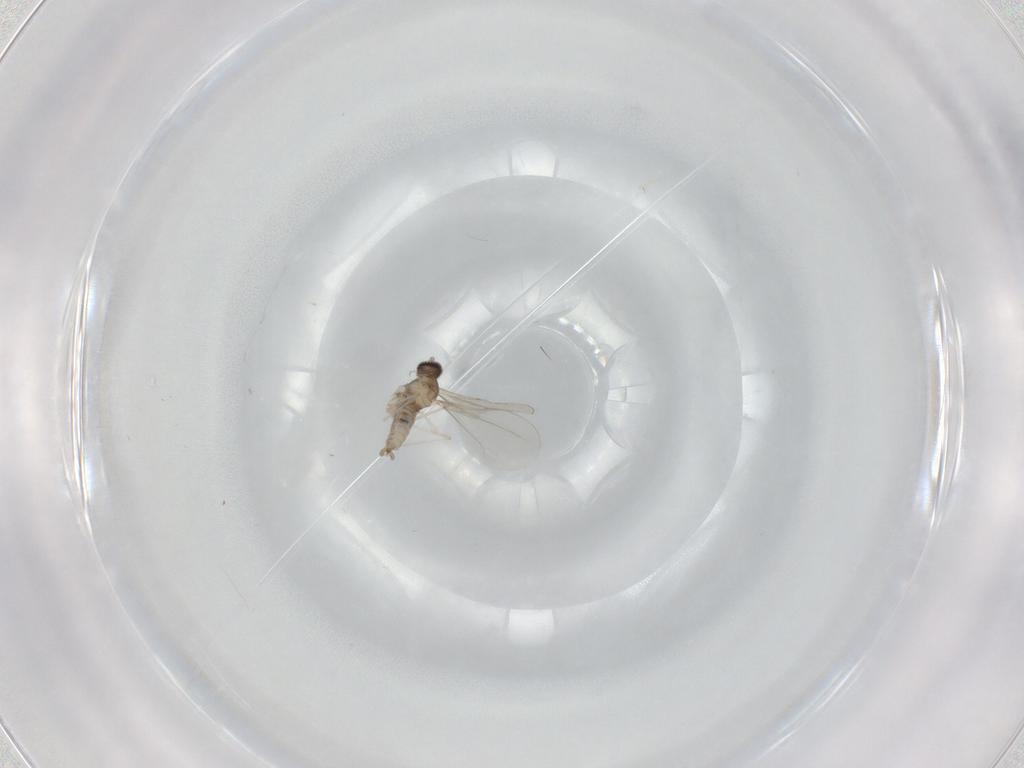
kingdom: Animalia
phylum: Arthropoda
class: Insecta
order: Diptera
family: Cecidomyiidae
